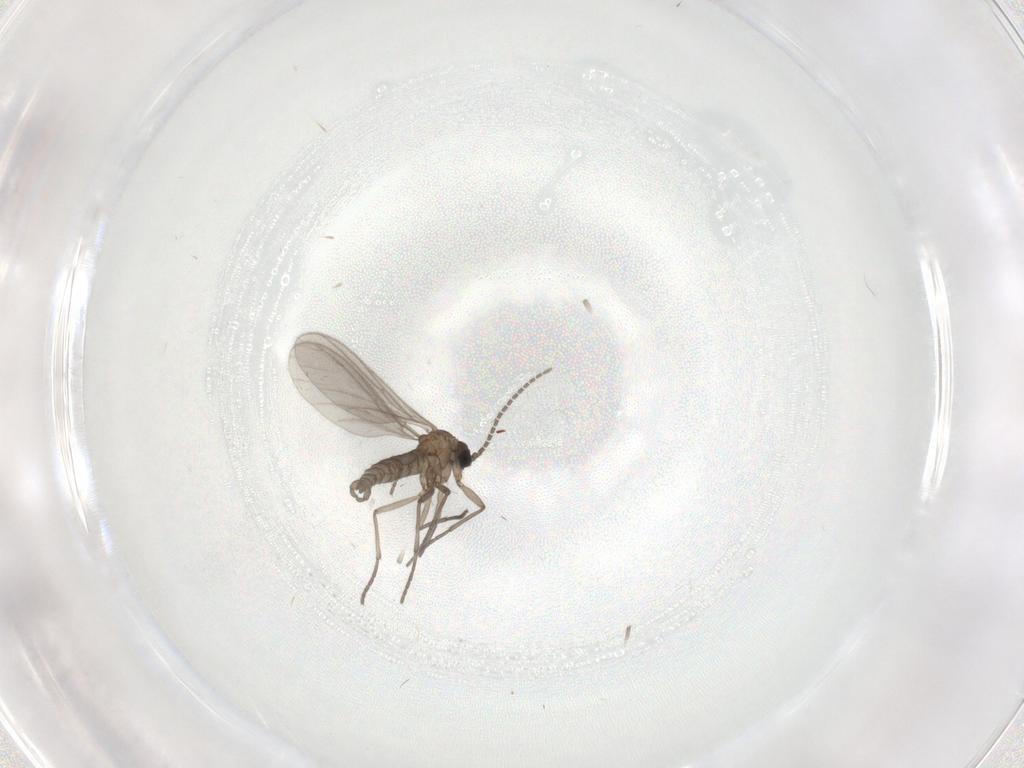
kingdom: Animalia
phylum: Arthropoda
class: Insecta
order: Diptera
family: Sciaridae
